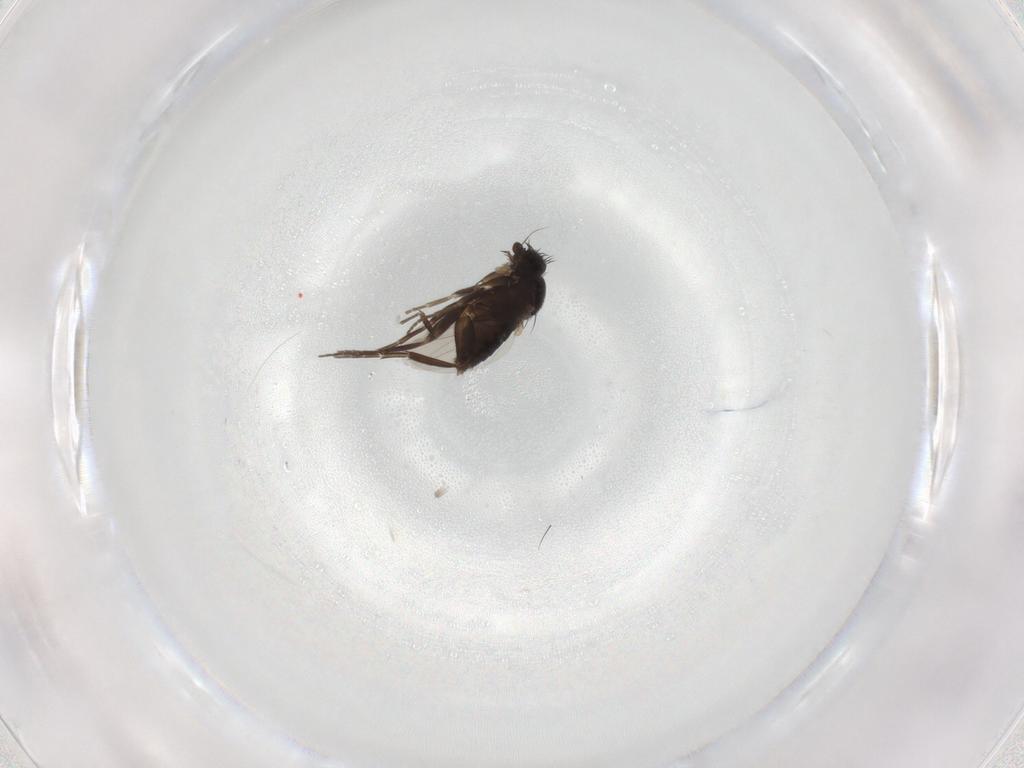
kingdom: Animalia
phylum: Arthropoda
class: Insecta
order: Diptera
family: Phoridae
